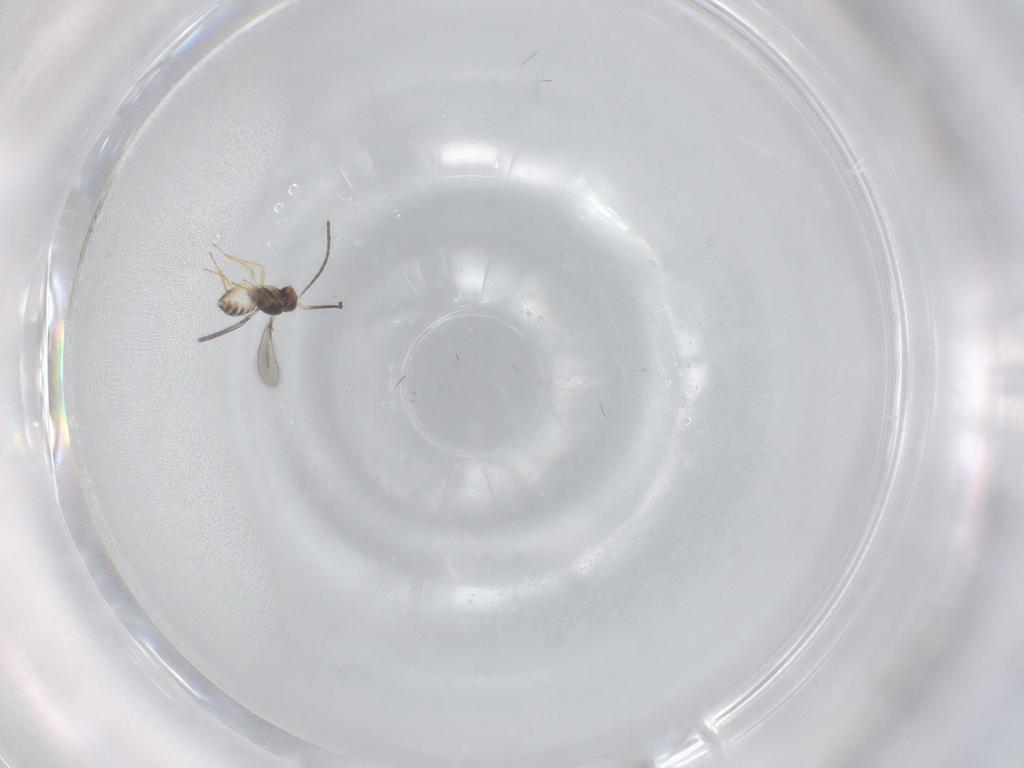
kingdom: Animalia
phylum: Arthropoda
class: Insecta
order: Hymenoptera
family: Mymaridae
